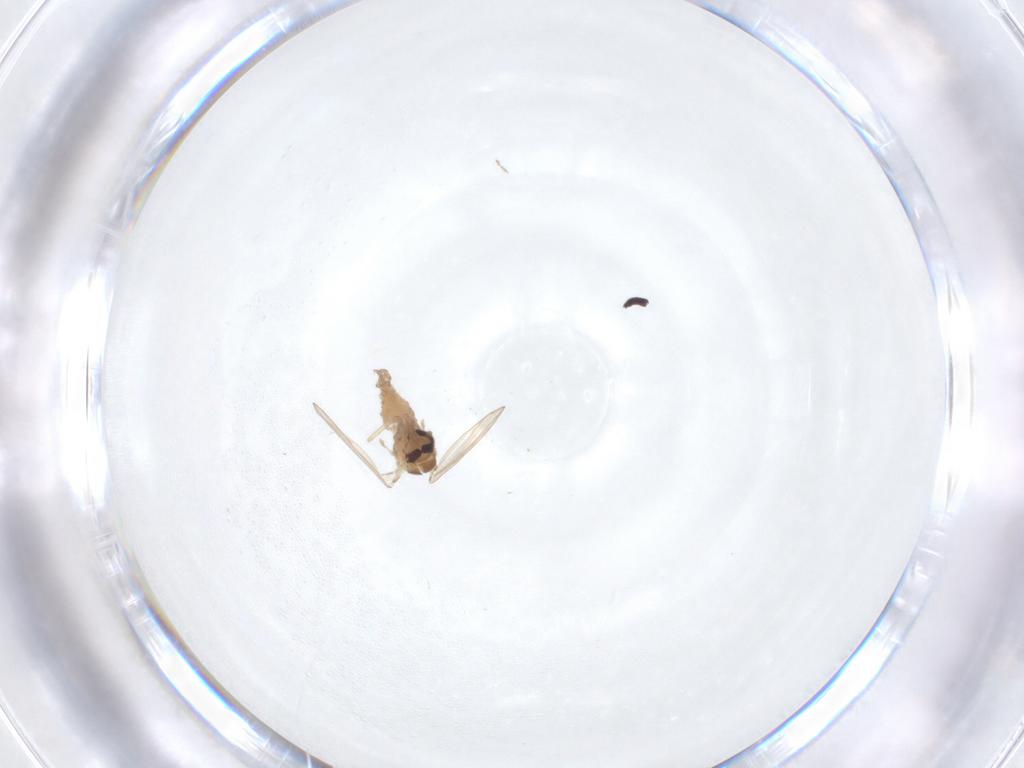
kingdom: Animalia
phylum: Arthropoda
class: Insecta
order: Diptera
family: Psychodidae
